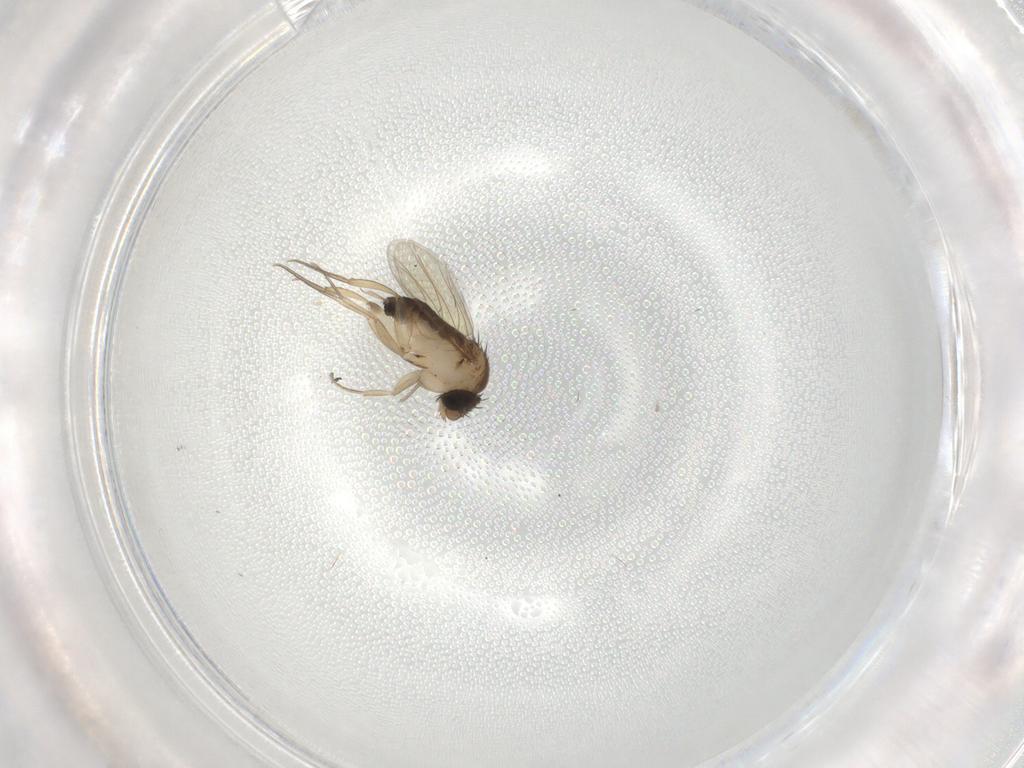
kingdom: Animalia
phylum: Arthropoda
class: Insecta
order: Diptera
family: Phoridae
